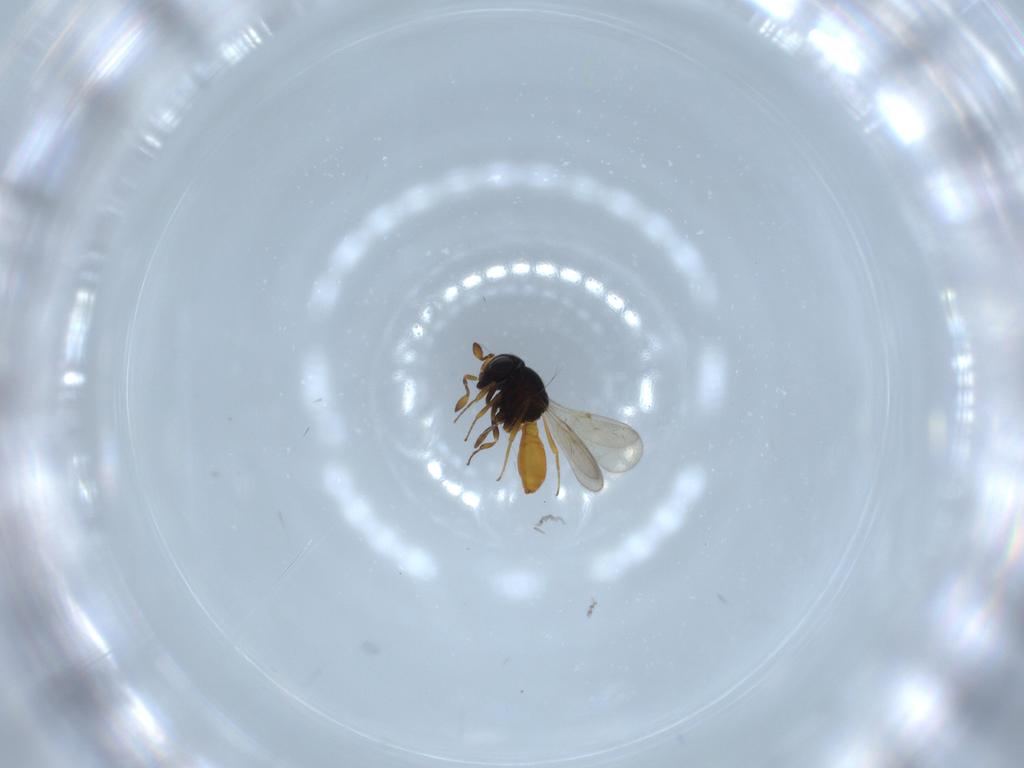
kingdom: Animalia
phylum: Arthropoda
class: Insecta
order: Hymenoptera
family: Scelionidae
